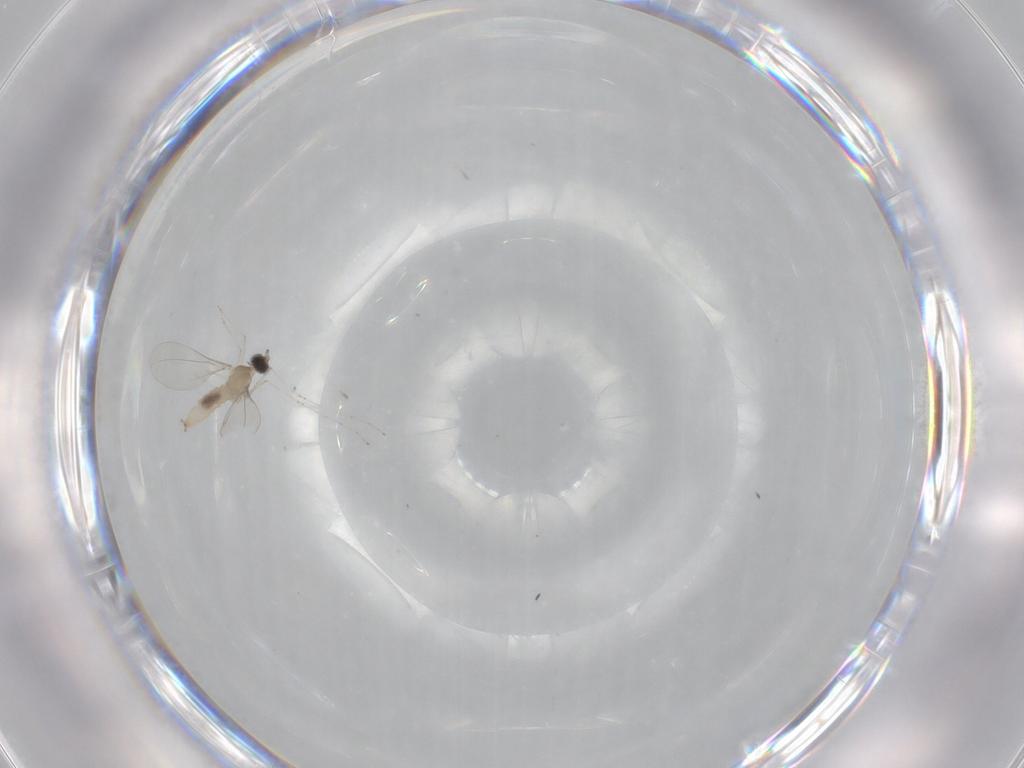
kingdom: Animalia
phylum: Arthropoda
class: Insecta
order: Diptera
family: Cecidomyiidae
